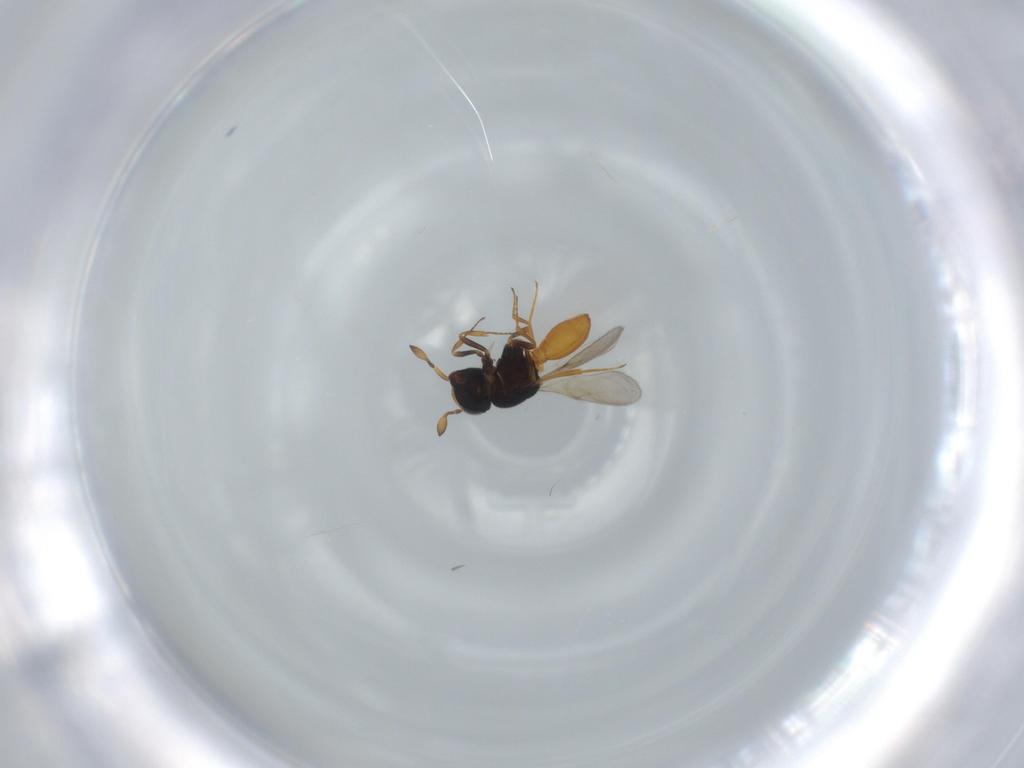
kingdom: Animalia
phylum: Arthropoda
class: Insecta
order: Hymenoptera
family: Scelionidae
